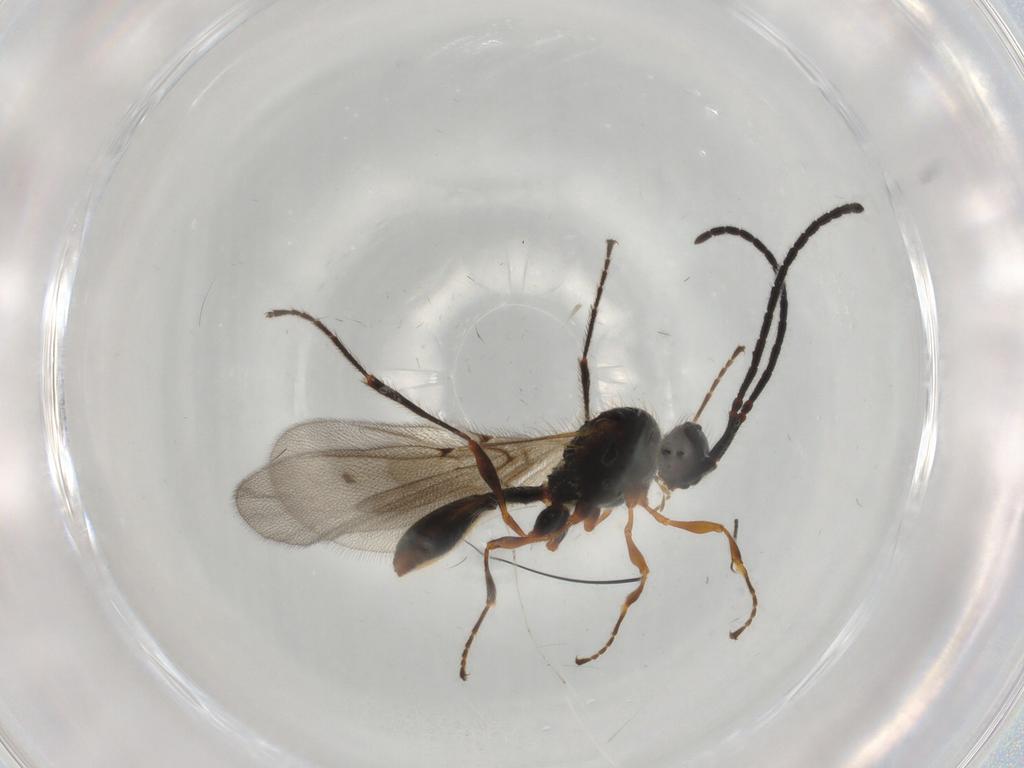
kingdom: Animalia
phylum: Arthropoda
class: Insecta
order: Hymenoptera
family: Diapriidae
